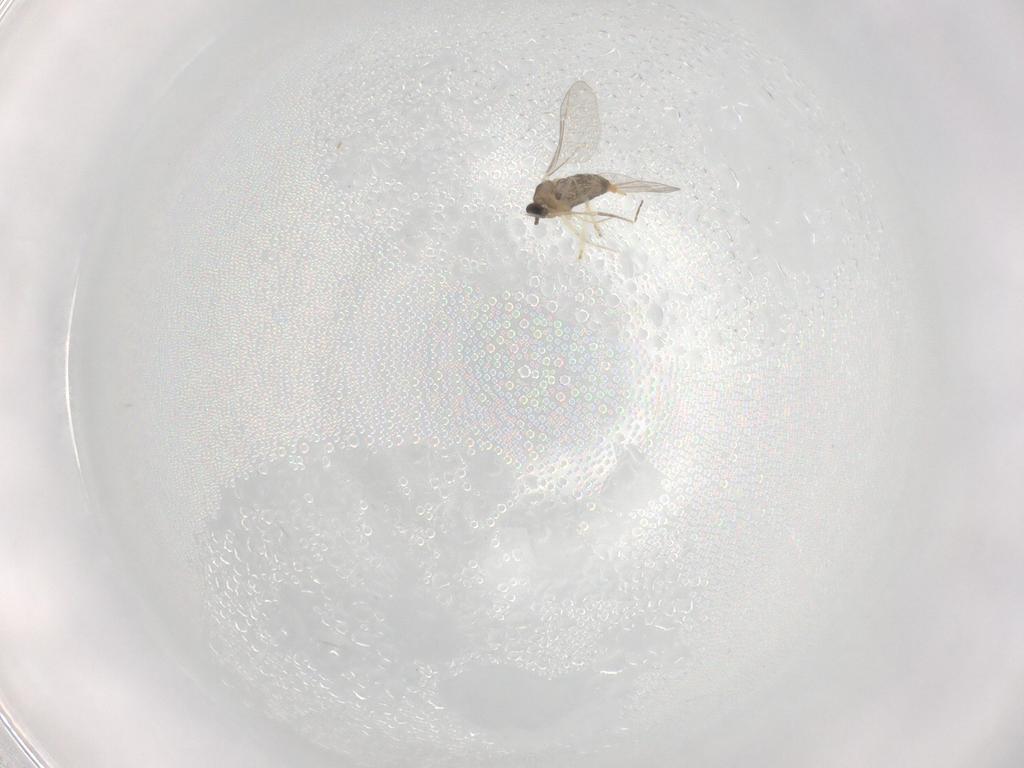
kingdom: Animalia
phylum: Arthropoda
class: Insecta
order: Diptera
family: Cecidomyiidae
